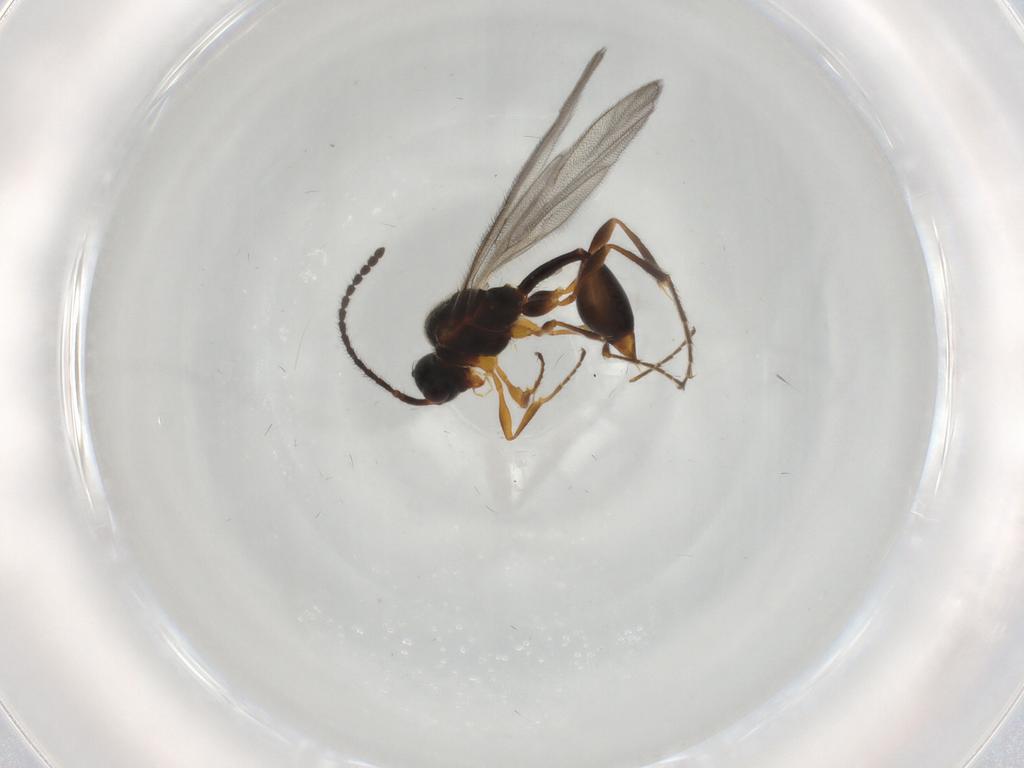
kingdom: Animalia
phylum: Arthropoda
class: Insecta
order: Hymenoptera
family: Diapriidae
